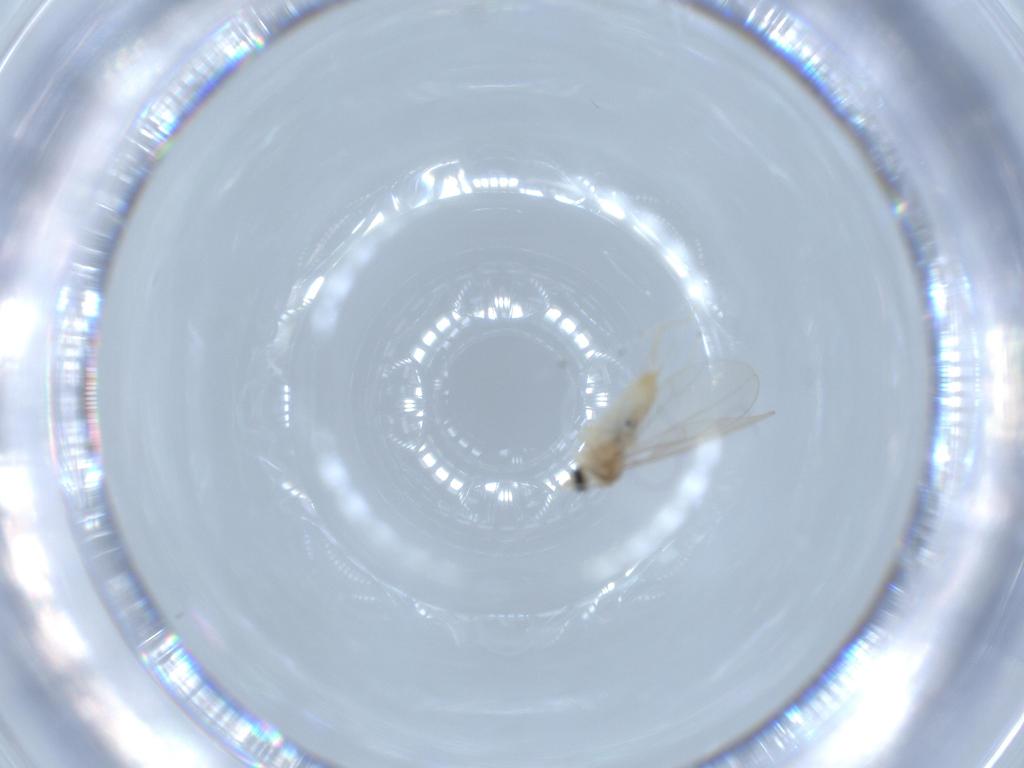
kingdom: Animalia
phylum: Arthropoda
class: Insecta
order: Diptera
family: Cecidomyiidae
